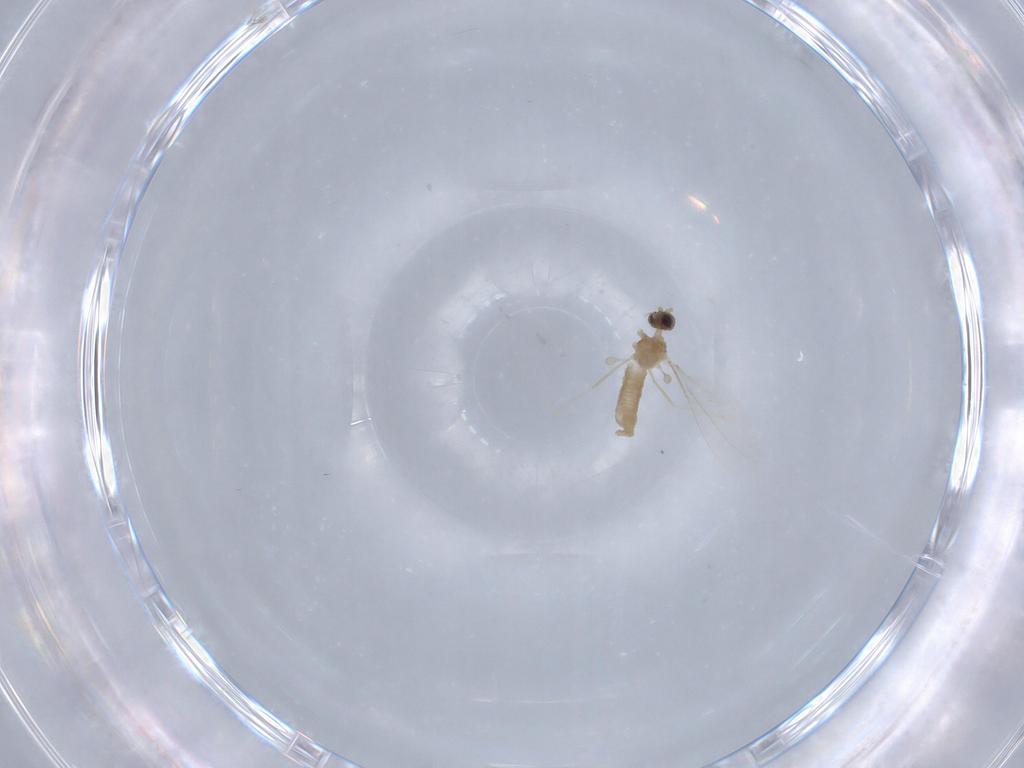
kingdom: Animalia
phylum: Arthropoda
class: Insecta
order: Diptera
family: Cecidomyiidae
